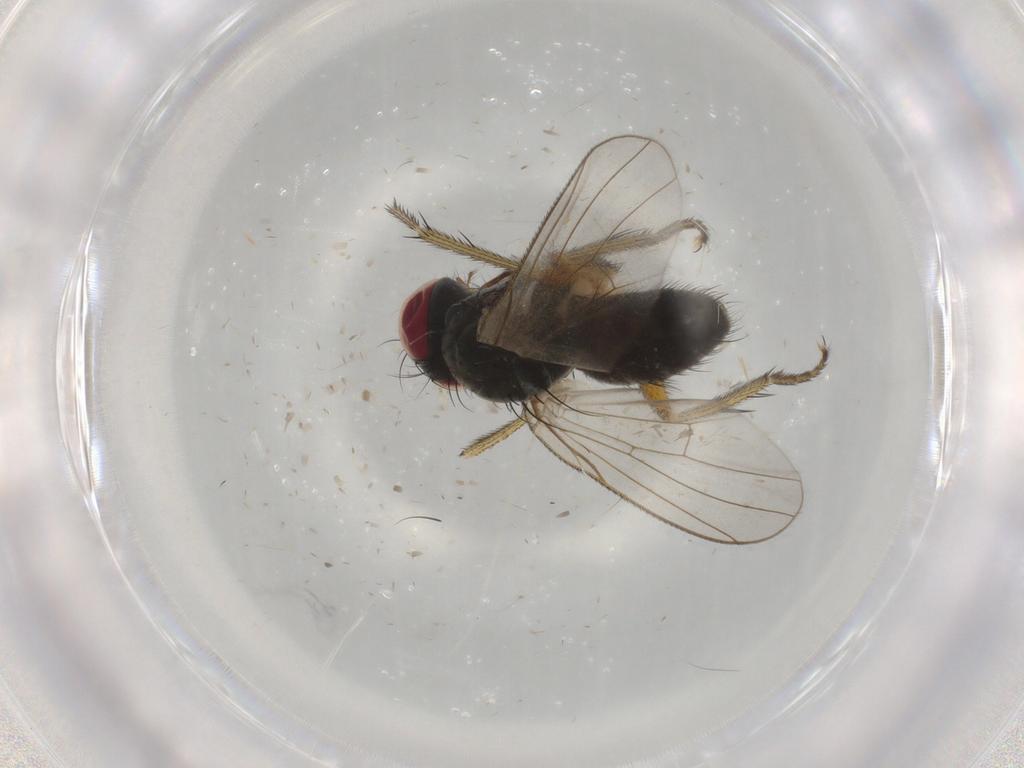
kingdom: Animalia
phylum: Arthropoda
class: Insecta
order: Diptera
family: Muscidae
